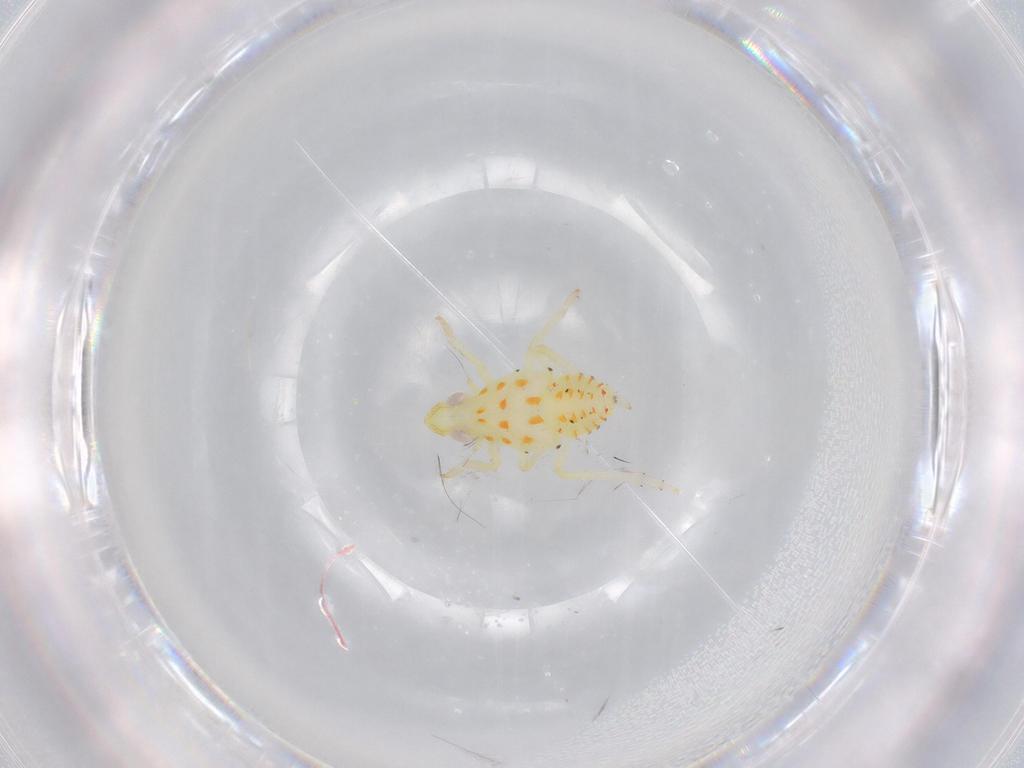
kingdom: Animalia
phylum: Arthropoda
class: Insecta
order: Hemiptera
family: Tropiduchidae
